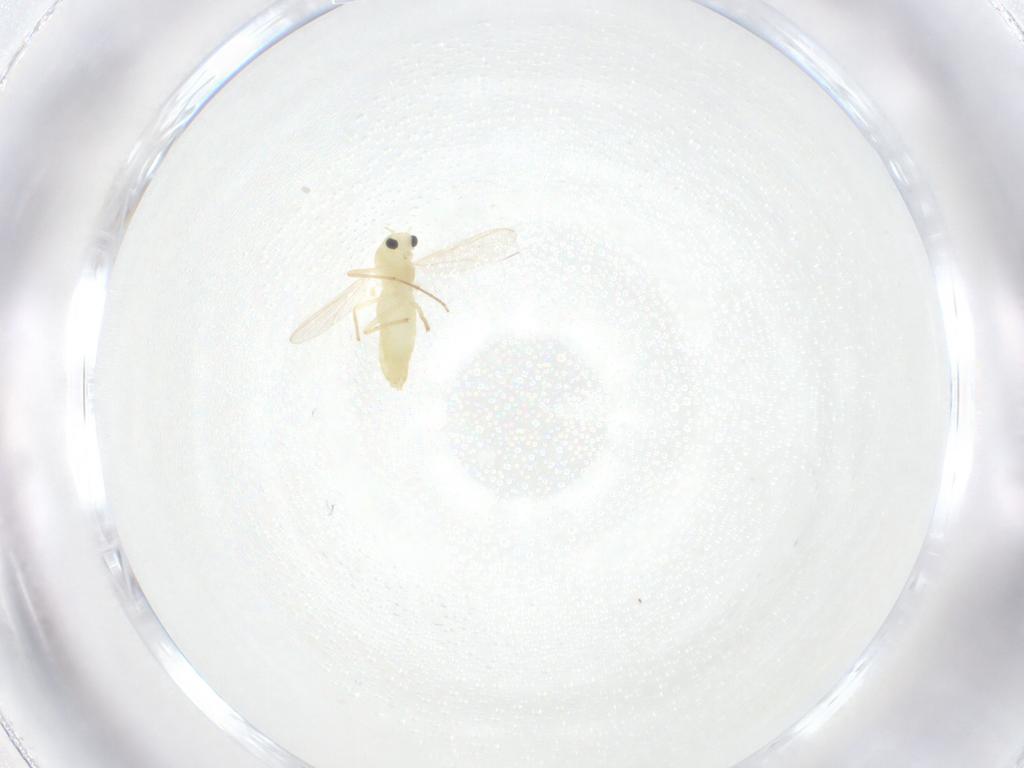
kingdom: Animalia
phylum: Arthropoda
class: Insecta
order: Diptera
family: Chironomidae
